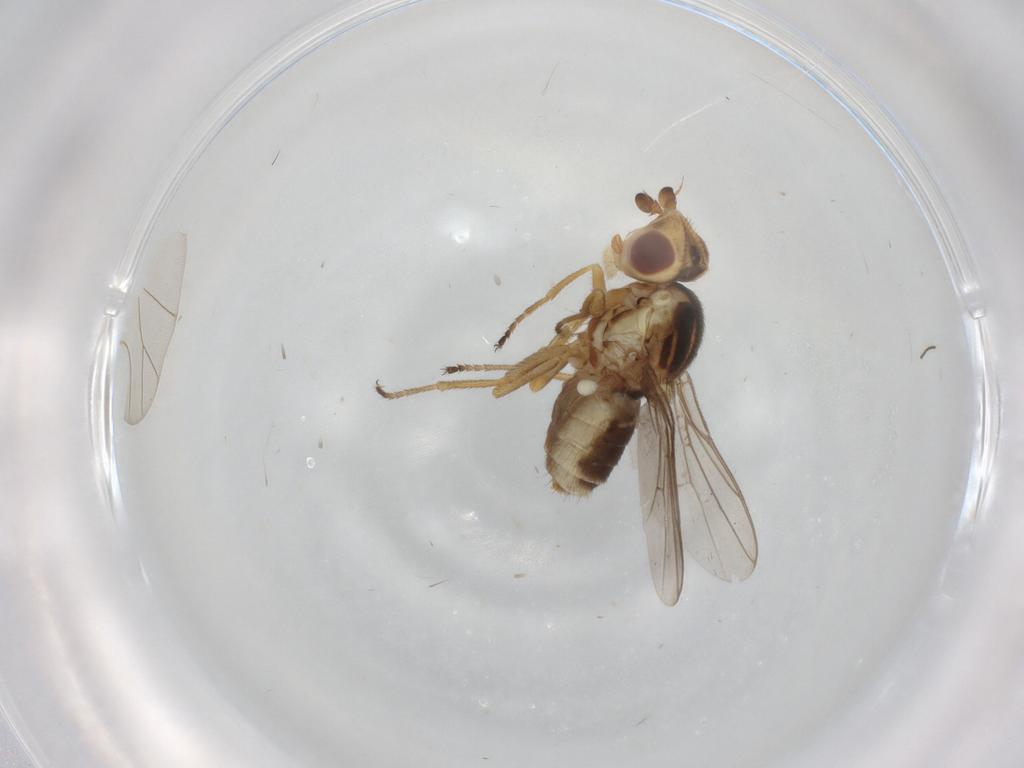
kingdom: Animalia
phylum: Arthropoda
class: Insecta
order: Diptera
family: Chloropidae
